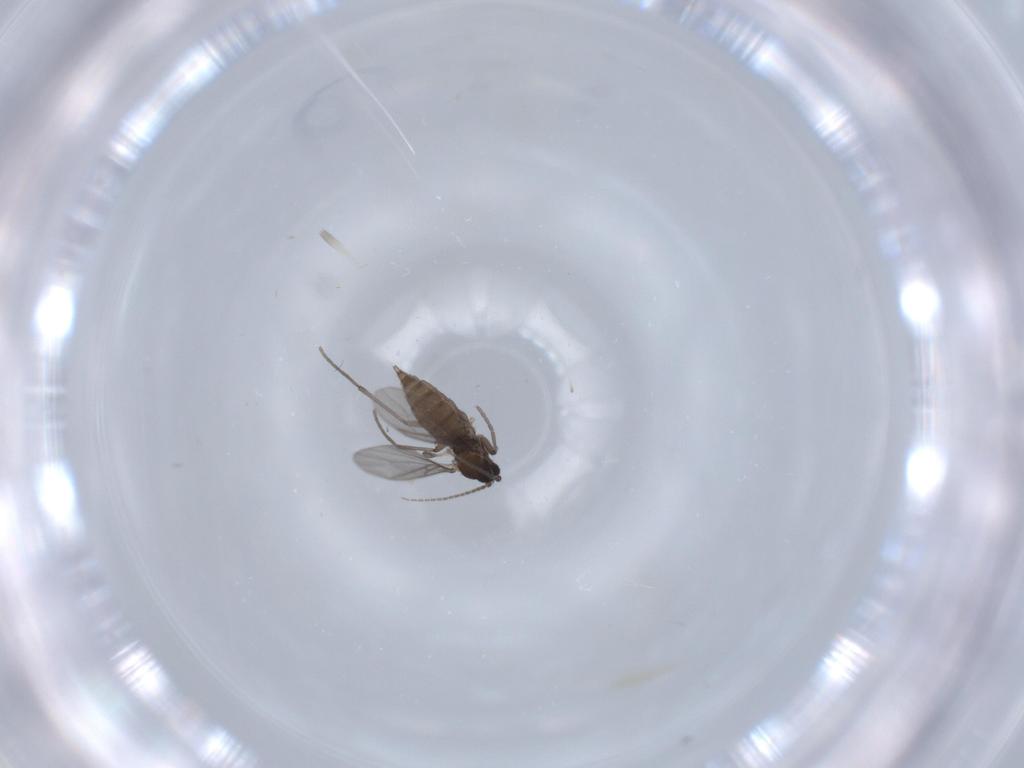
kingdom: Animalia
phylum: Arthropoda
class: Insecta
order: Diptera
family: Sciaridae
